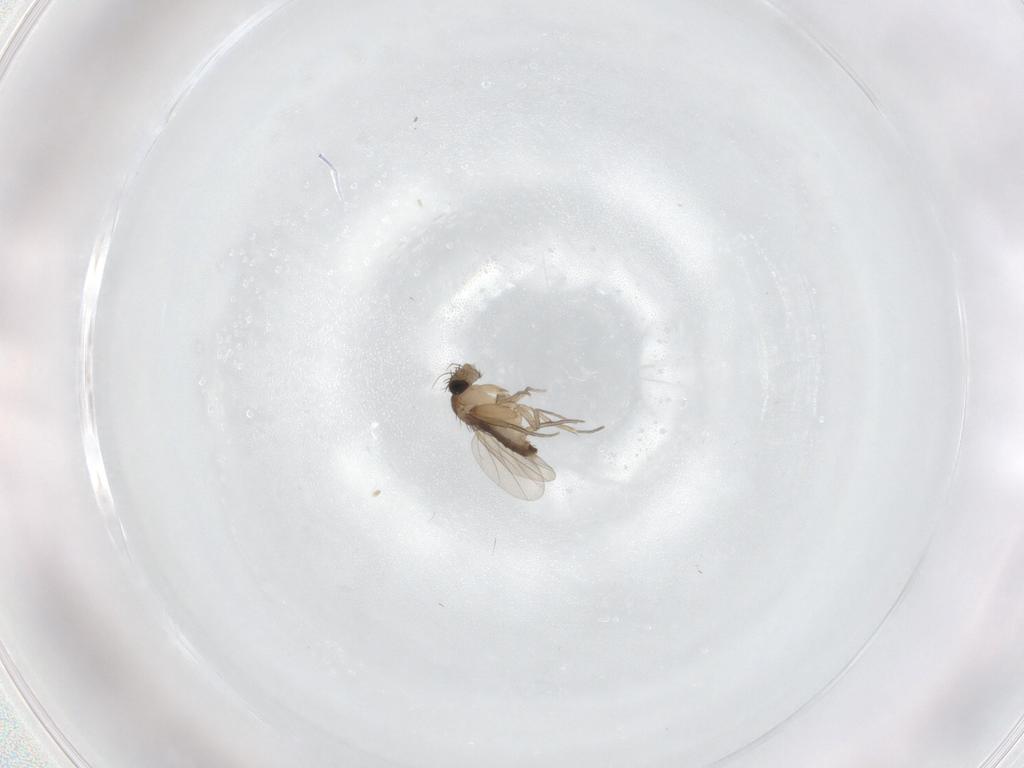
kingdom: Animalia
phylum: Arthropoda
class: Insecta
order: Diptera
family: Phoridae
